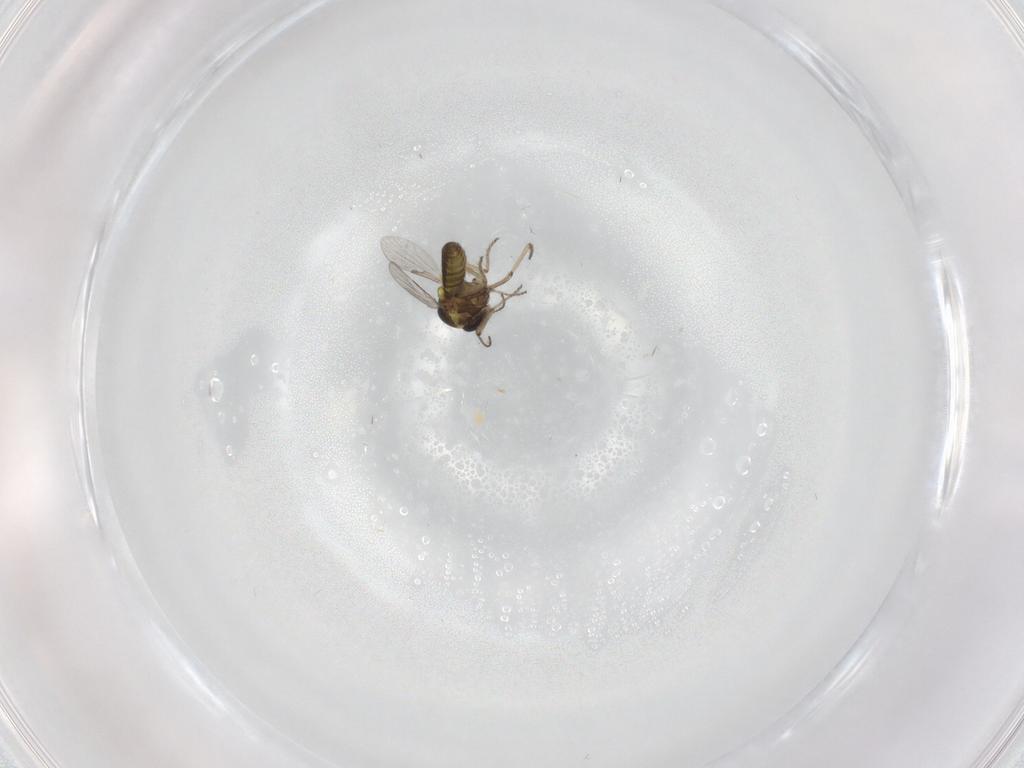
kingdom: Animalia
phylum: Arthropoda
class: Insecta
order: Diptera
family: Ceratopogonidae
